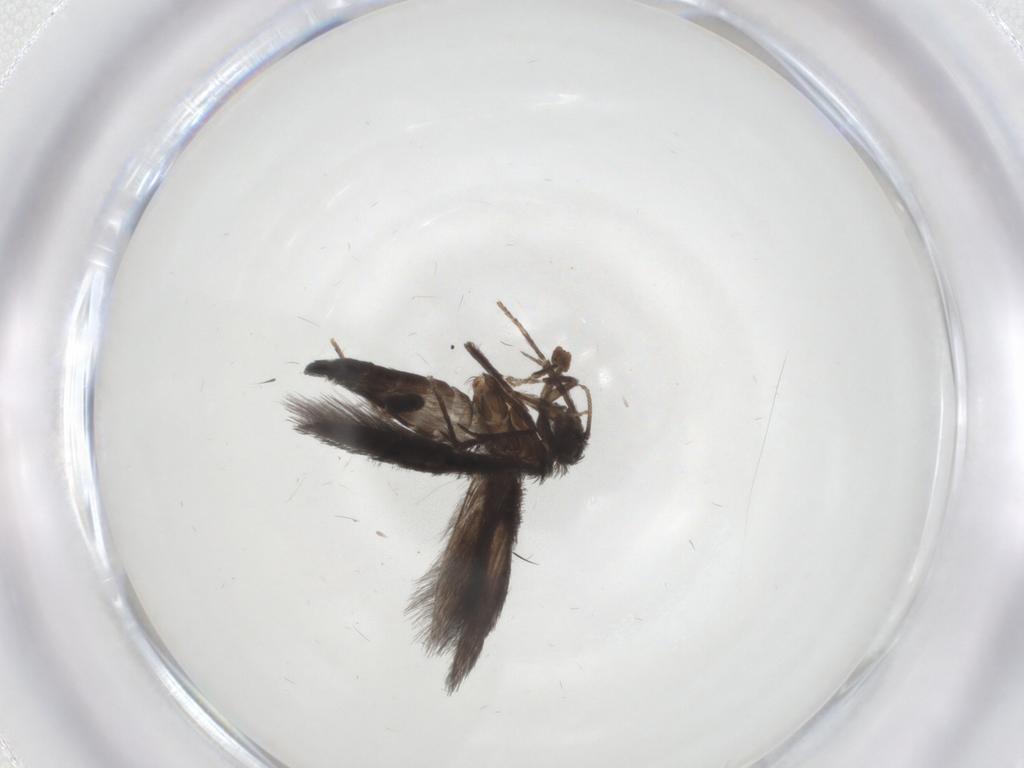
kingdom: Animalia
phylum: Arthropoda
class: Insecta
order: Trichoptera
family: Hydroptilidae
